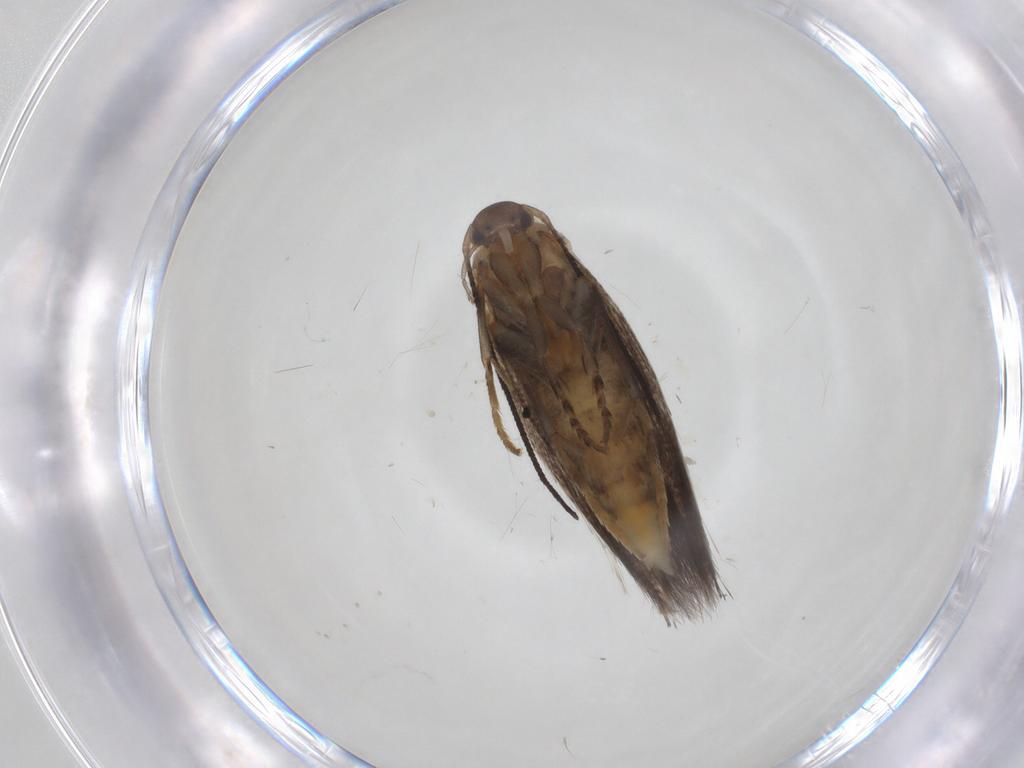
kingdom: Animalia
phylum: Arthropoda
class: Insecta
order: Lepidoptera
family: Elachistidae
